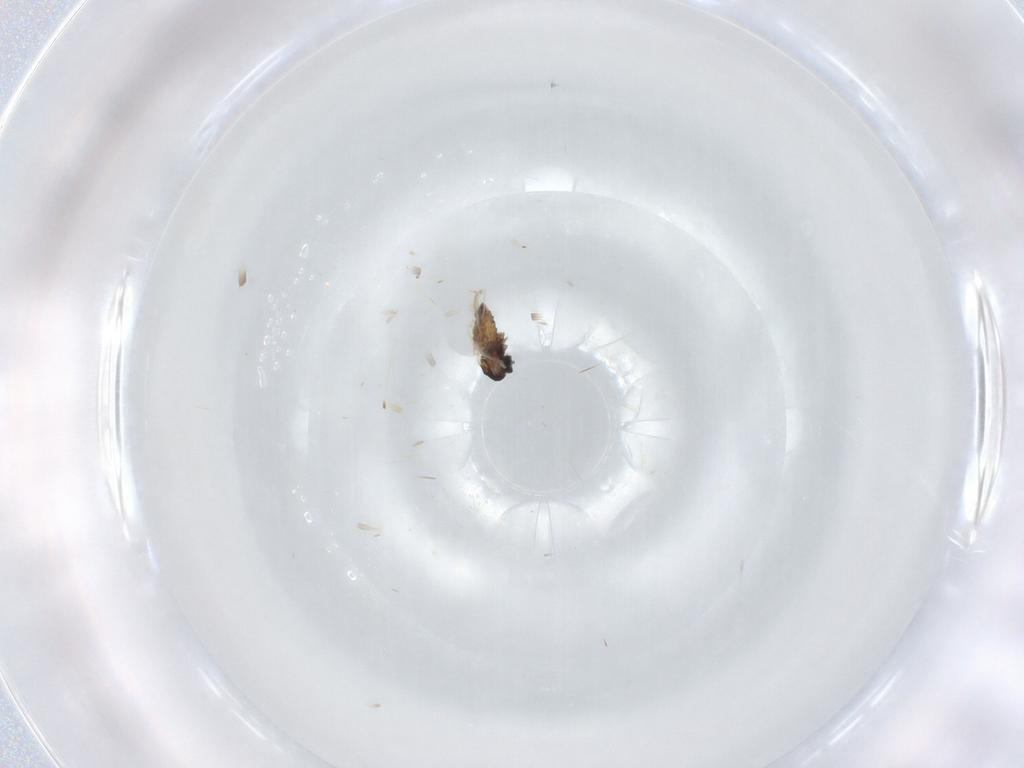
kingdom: Animalia
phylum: Arthropoda
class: Insecta
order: Diptera
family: Cecidomyiidae
